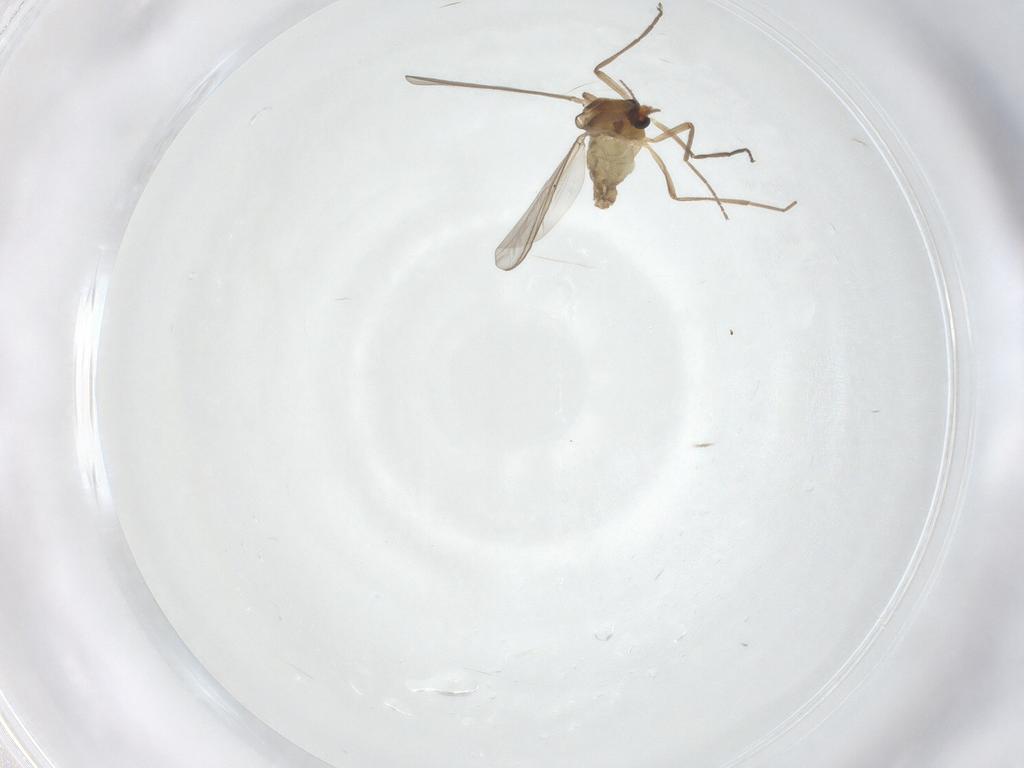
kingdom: Animalia
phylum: Arthropoda
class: Insecta
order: Diptera
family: Chironomidae
